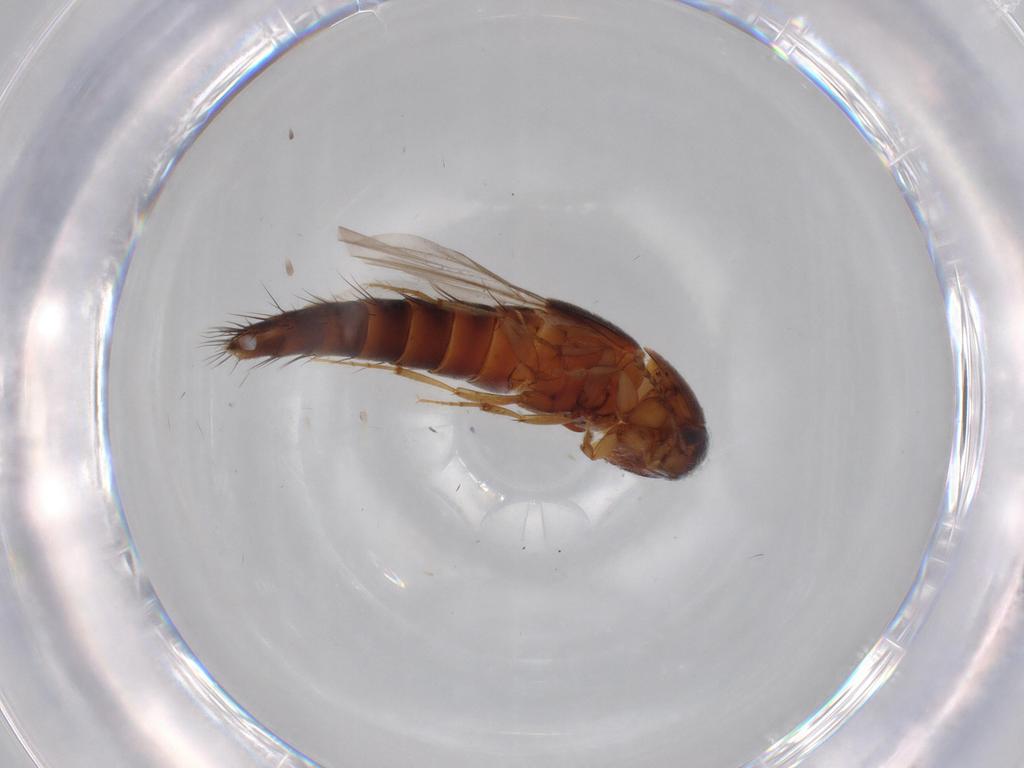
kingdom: Animalia
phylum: Arthropoda
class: Insecta
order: Coleoptera
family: Staphylinidae
